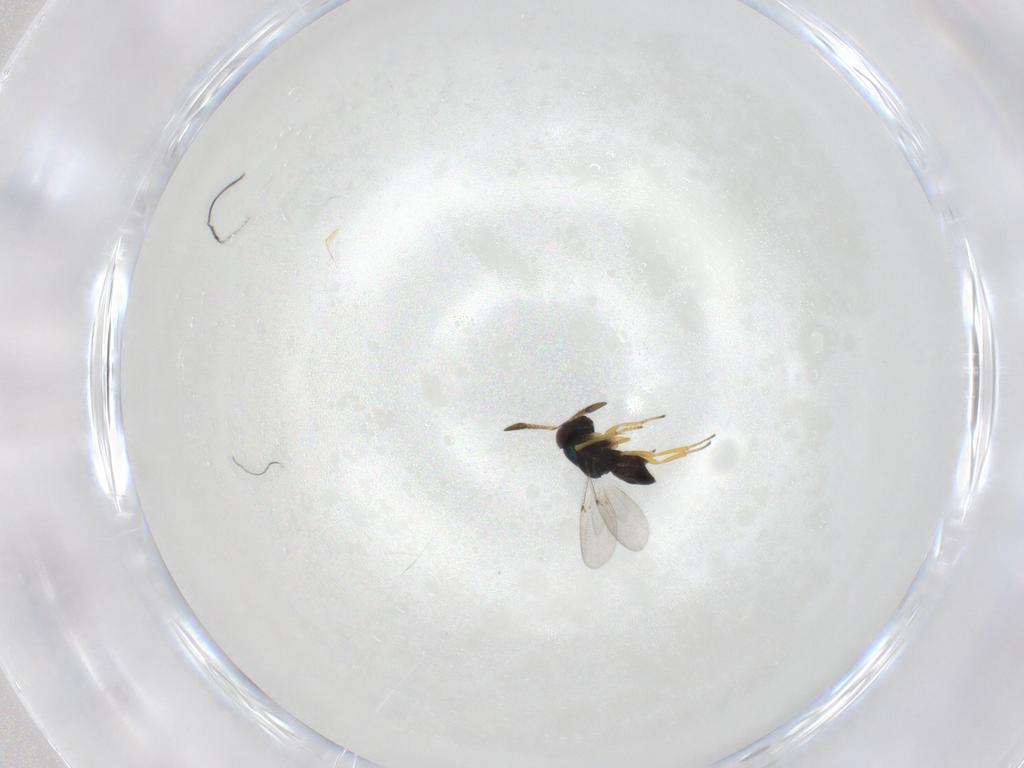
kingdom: Animalia
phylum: Arthropoda
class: Insecta
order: Hymenoptera
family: Encyrtidae
